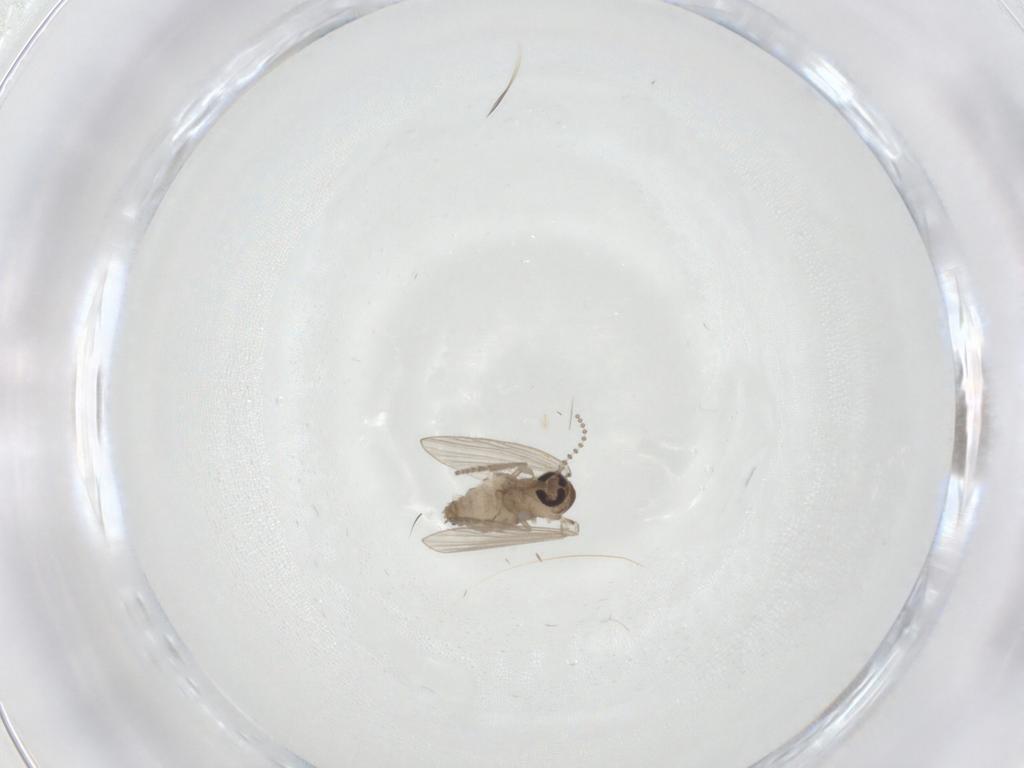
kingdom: Animalia
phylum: Arthropoda
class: Insecta
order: Diptera
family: Psychodidae
